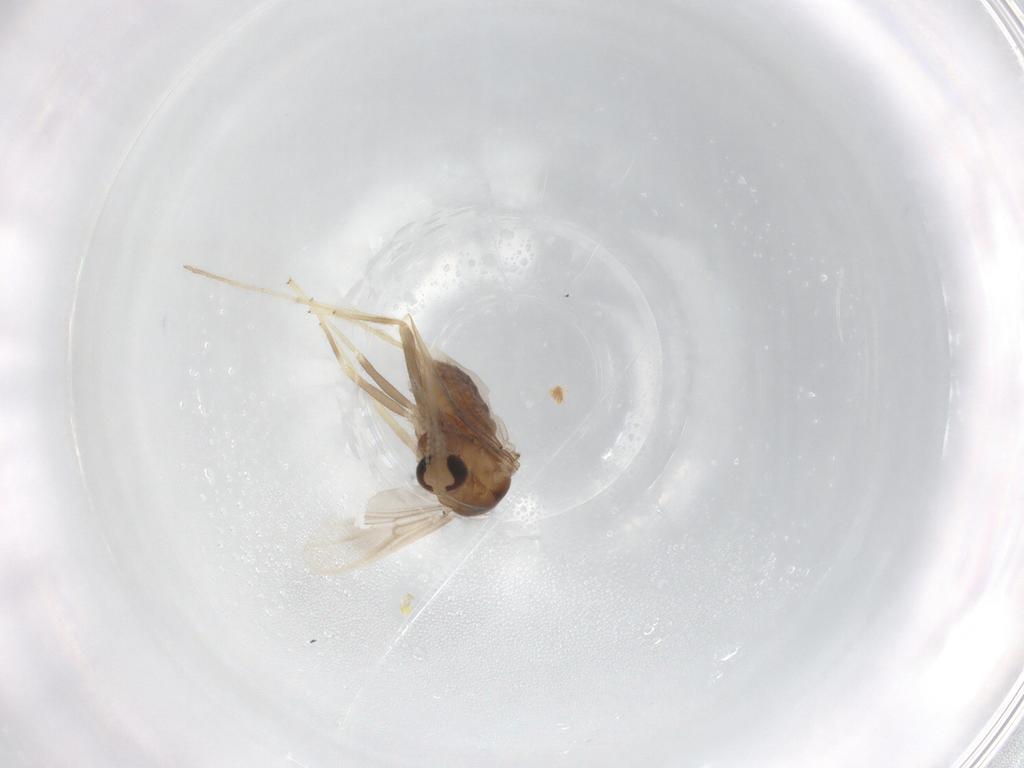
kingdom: Animalia
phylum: Arthropoda
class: Insecta
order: Diptera
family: Chironomidae
